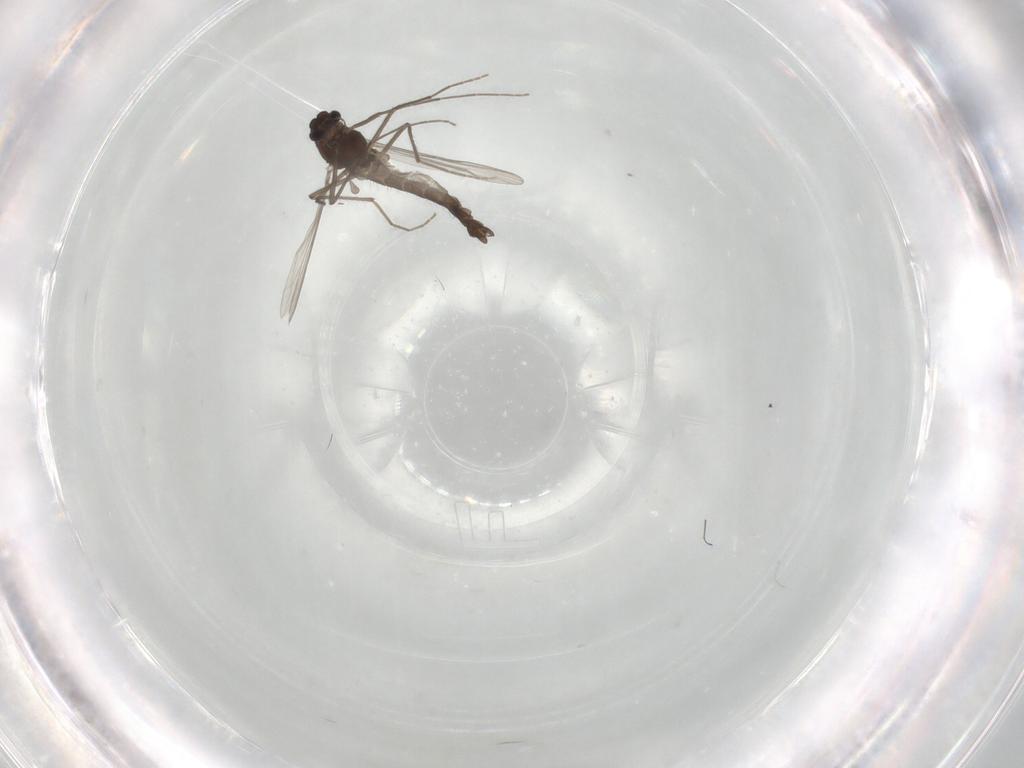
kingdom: Animalia
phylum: Arthropoda
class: Insecta
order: Diptera
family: Chironomidae
